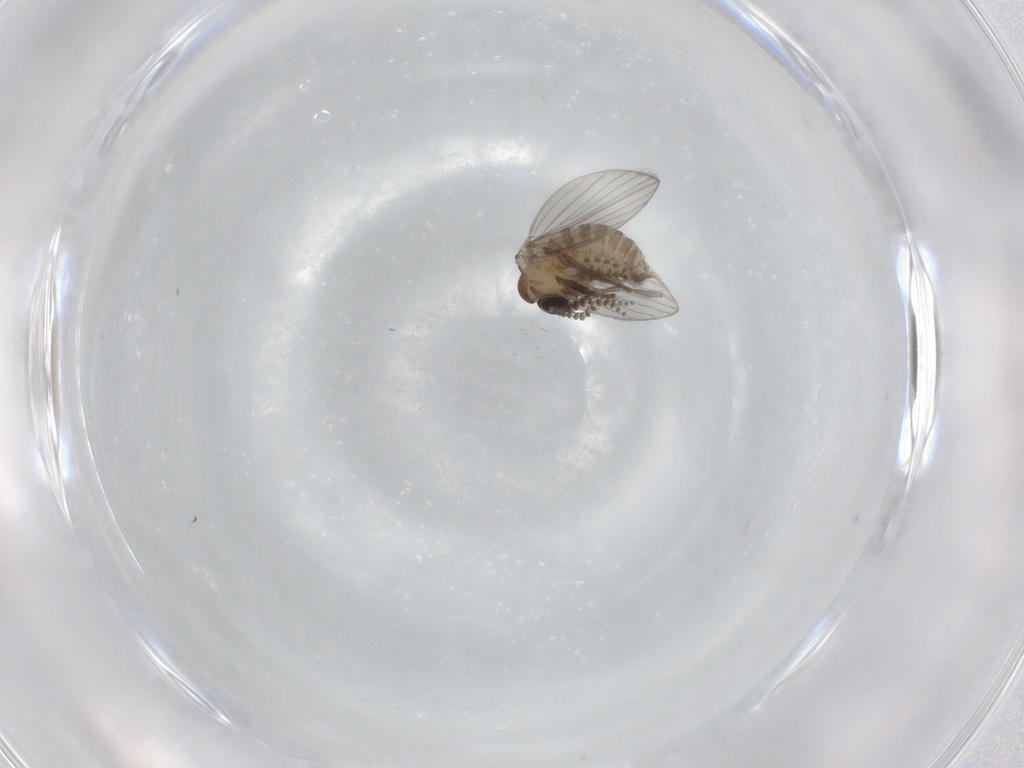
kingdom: Animalia
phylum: Arthropoda
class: Insecta
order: Diptera
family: Psychodidae
